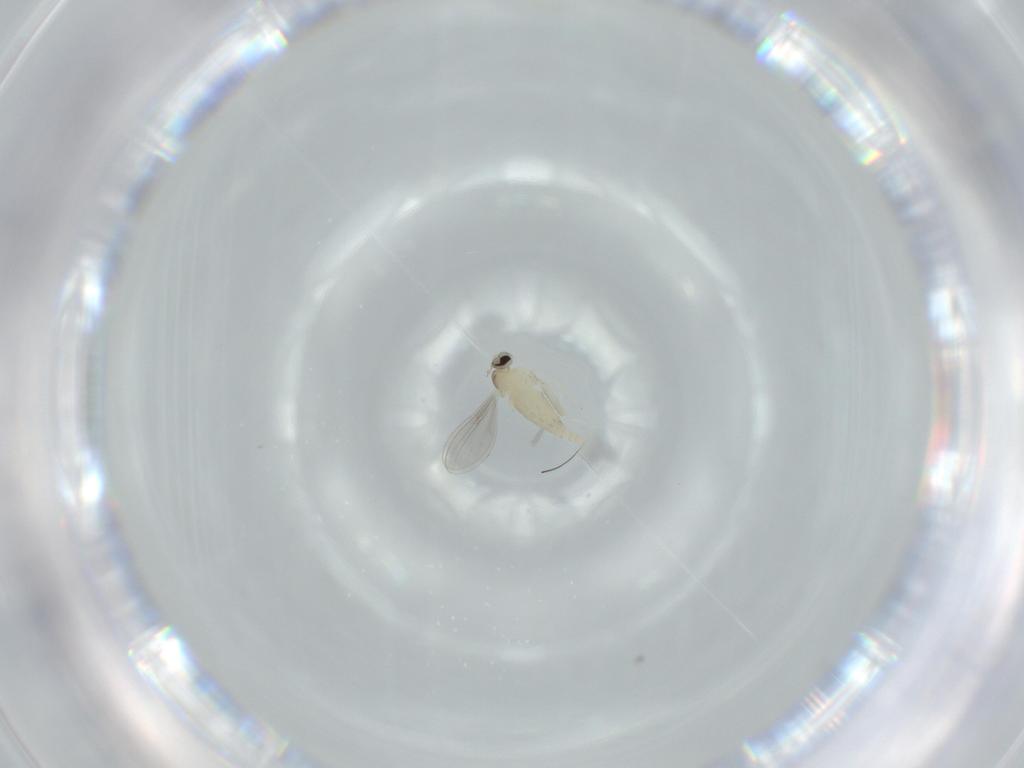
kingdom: Animalia
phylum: Arthropoda
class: Insecta
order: Diptera
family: Cecidomyiidae
